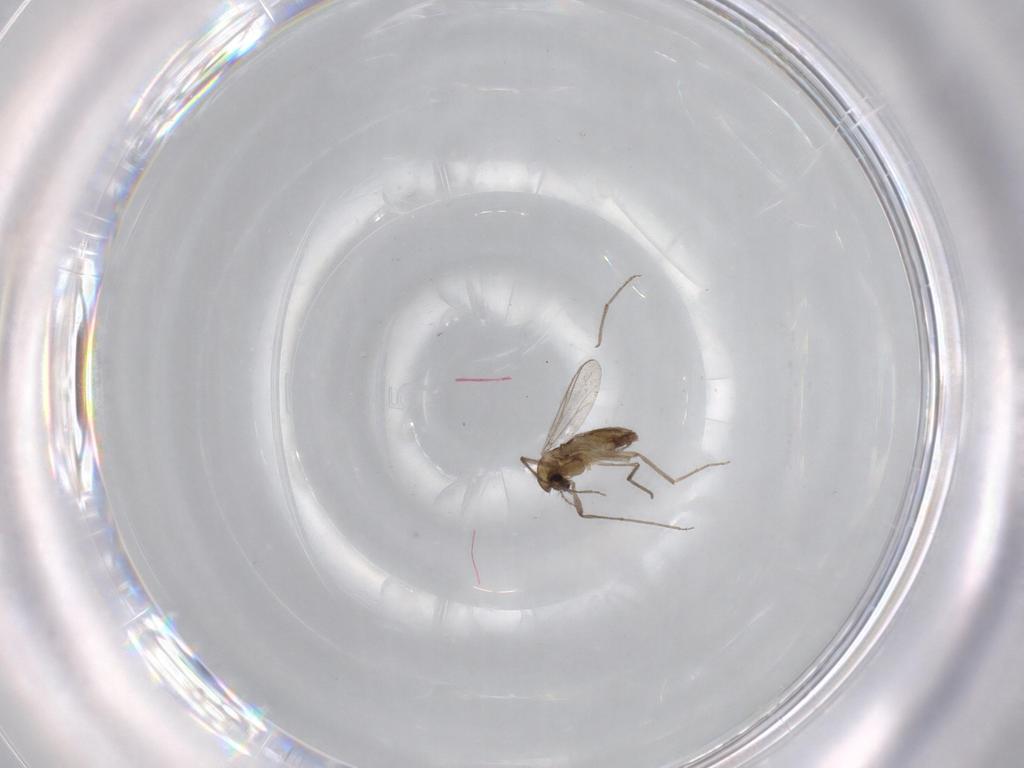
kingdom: Animalia
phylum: Arthropoda
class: Insecta
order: Diptera
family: Chironomidae
